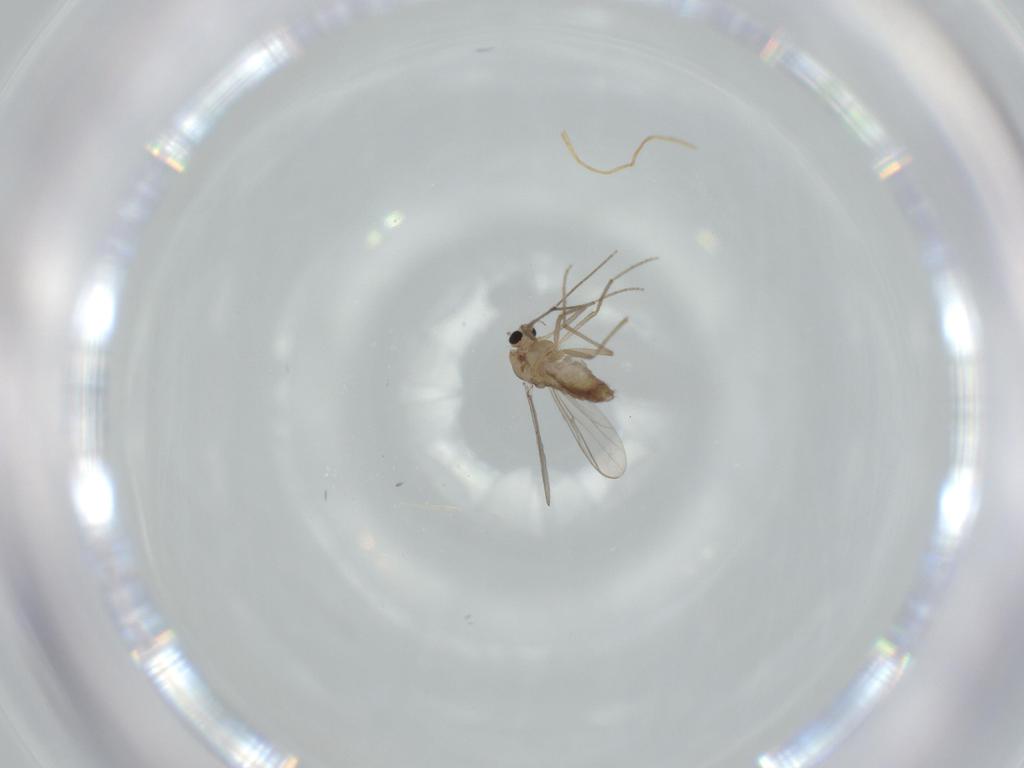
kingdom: Animalia
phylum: Arthropoda
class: Insecta
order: Diptera
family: Chironomidae
